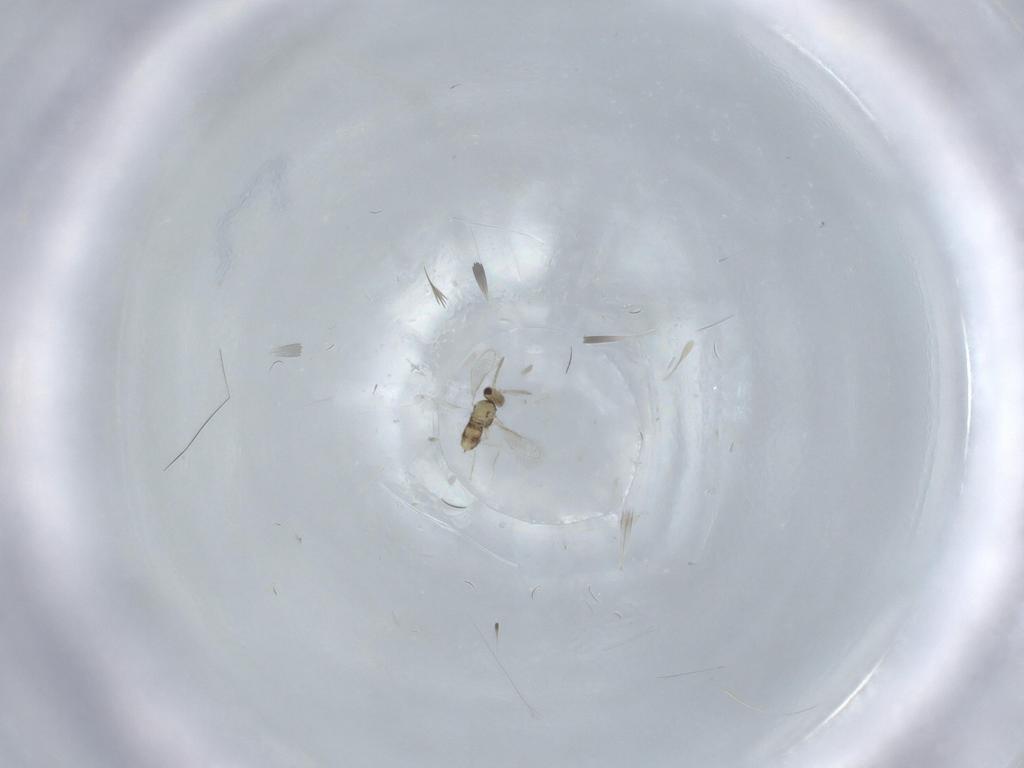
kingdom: Animalia
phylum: Arthropoda
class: Insecta
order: Hymenoptera
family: Aphelinidae
